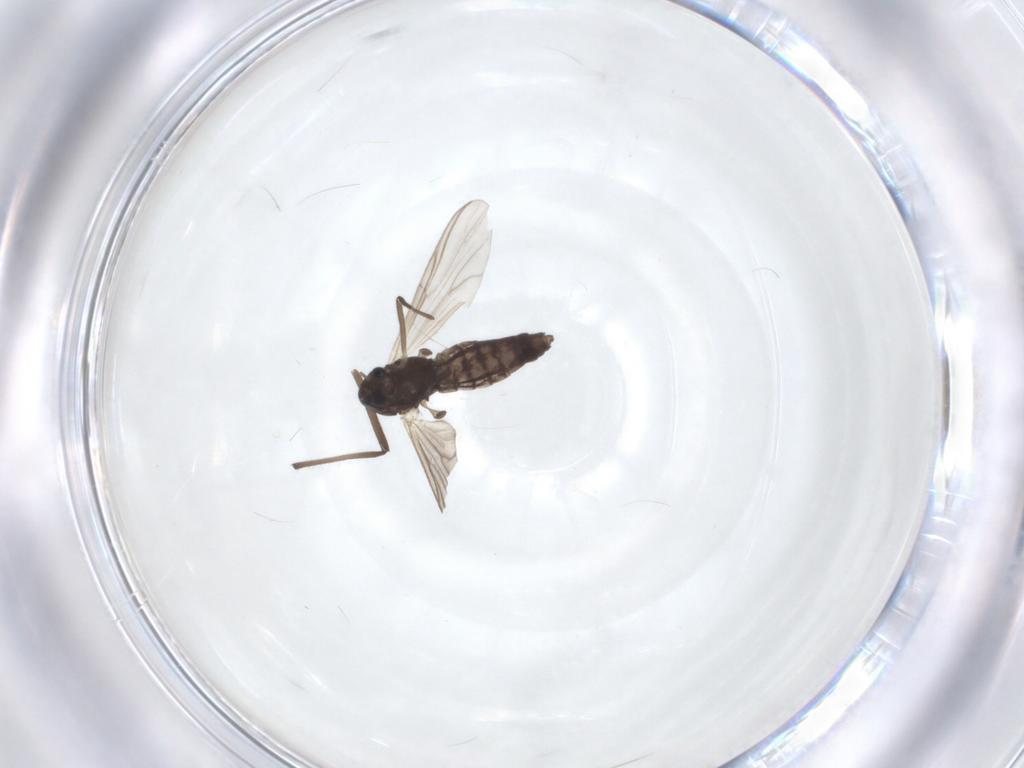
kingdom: Animalia
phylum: Arthropoda
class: Insecta
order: Diptera
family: Chironomidae
